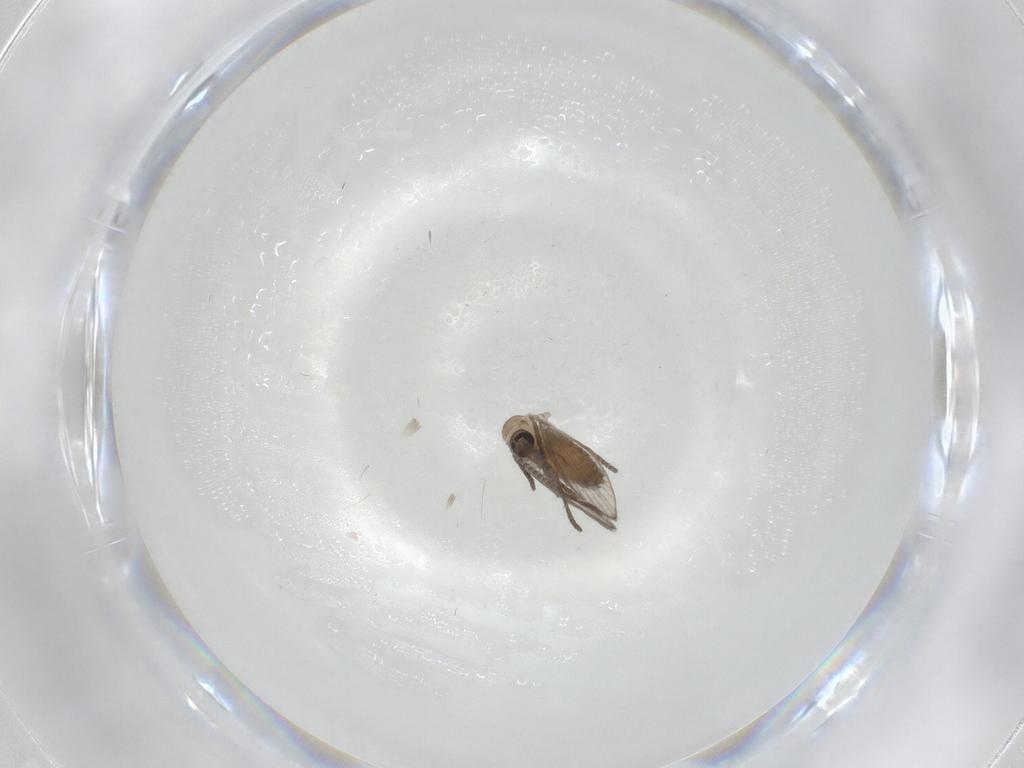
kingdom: Animalia
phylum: Arthropoda
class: Insecta
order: Diptera
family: Psychodidae
